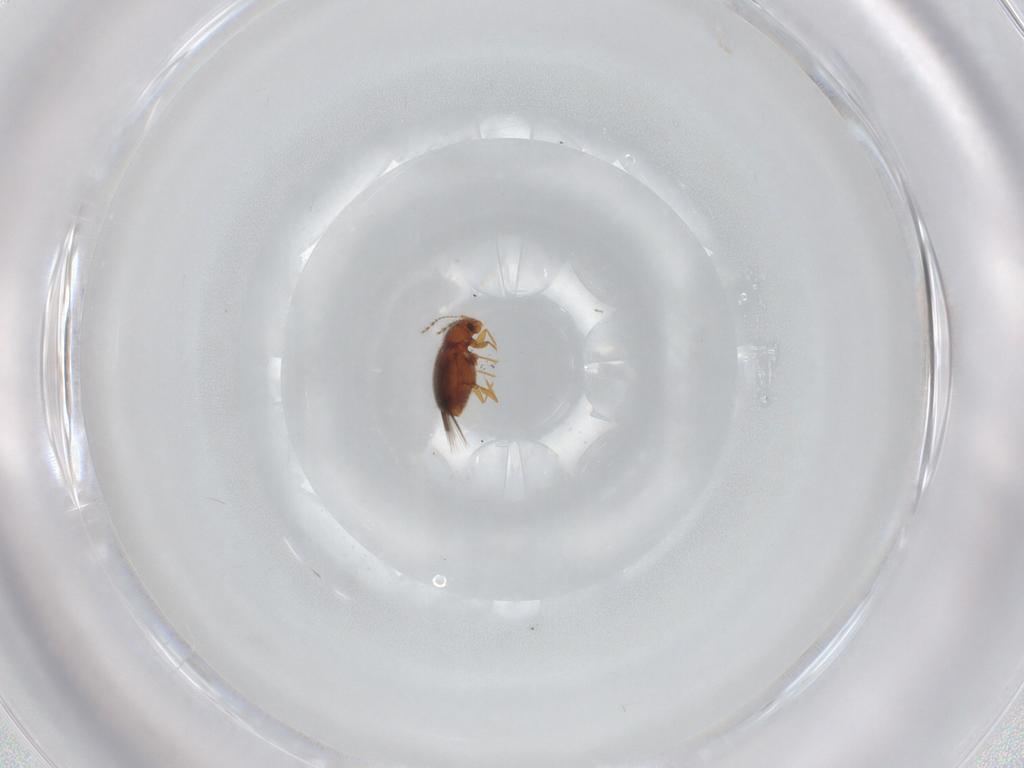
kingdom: Animalia
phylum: Arthropoda
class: Insecta
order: Coleoptera
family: Ptiliidae
